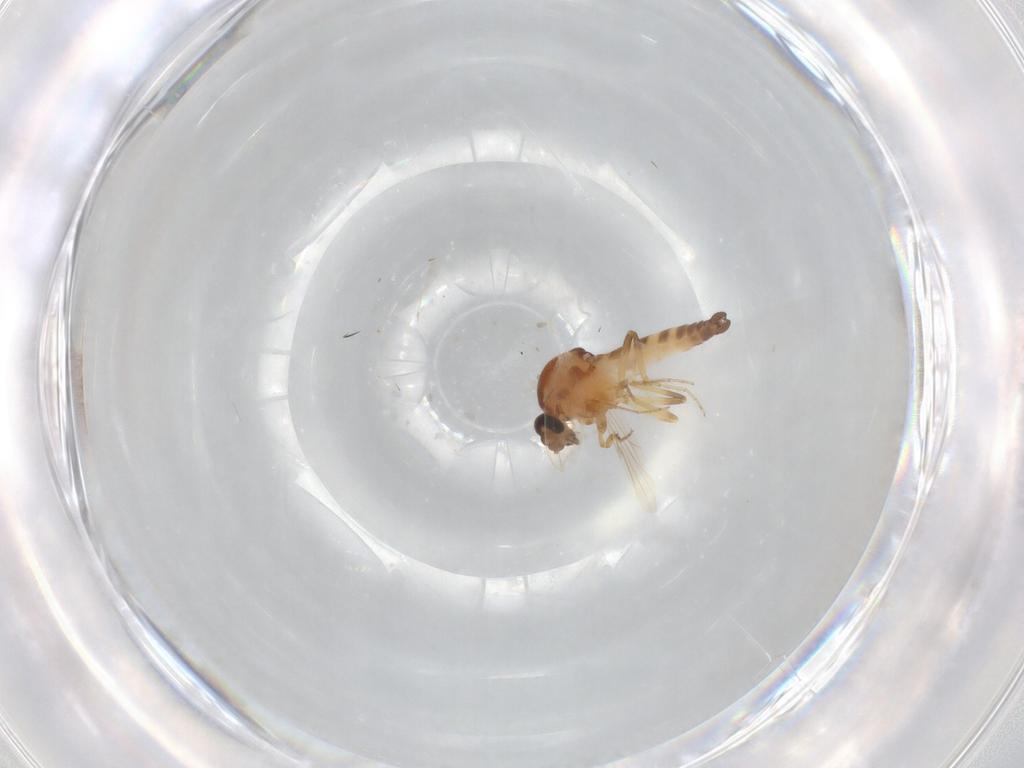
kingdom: Animalia
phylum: Arthropoda
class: Insecta
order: Diptera
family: Ceratopogonidae
